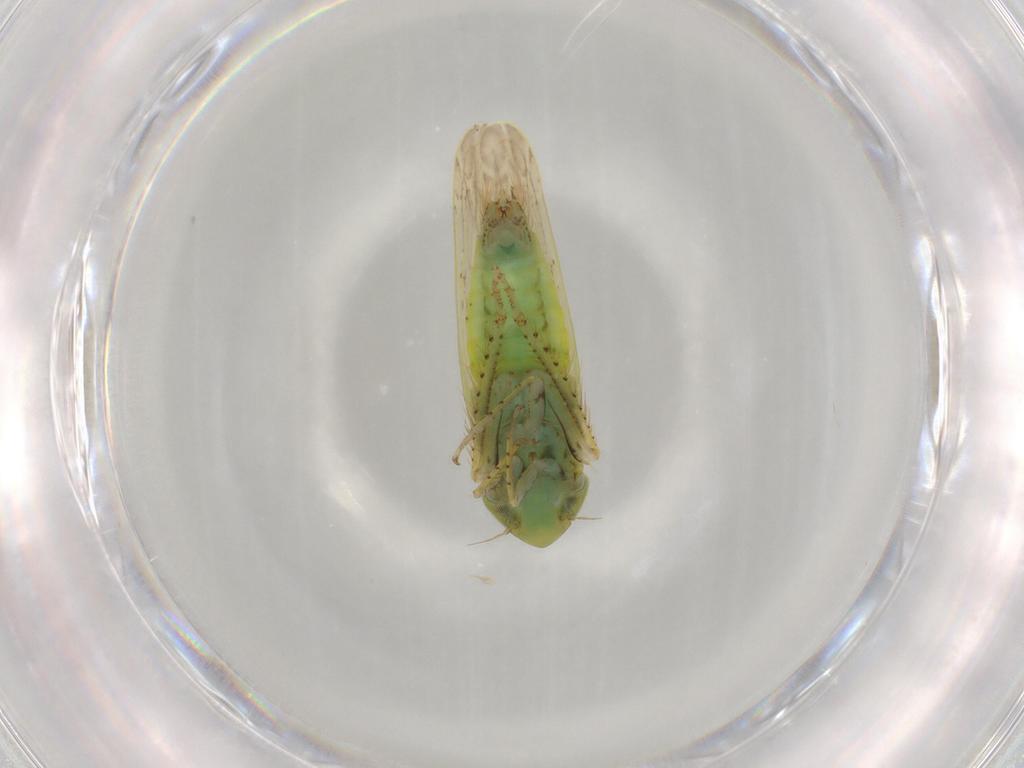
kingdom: Animalia
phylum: Arthropoda
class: Insecta
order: Hemiptera
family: Cicadellidae
